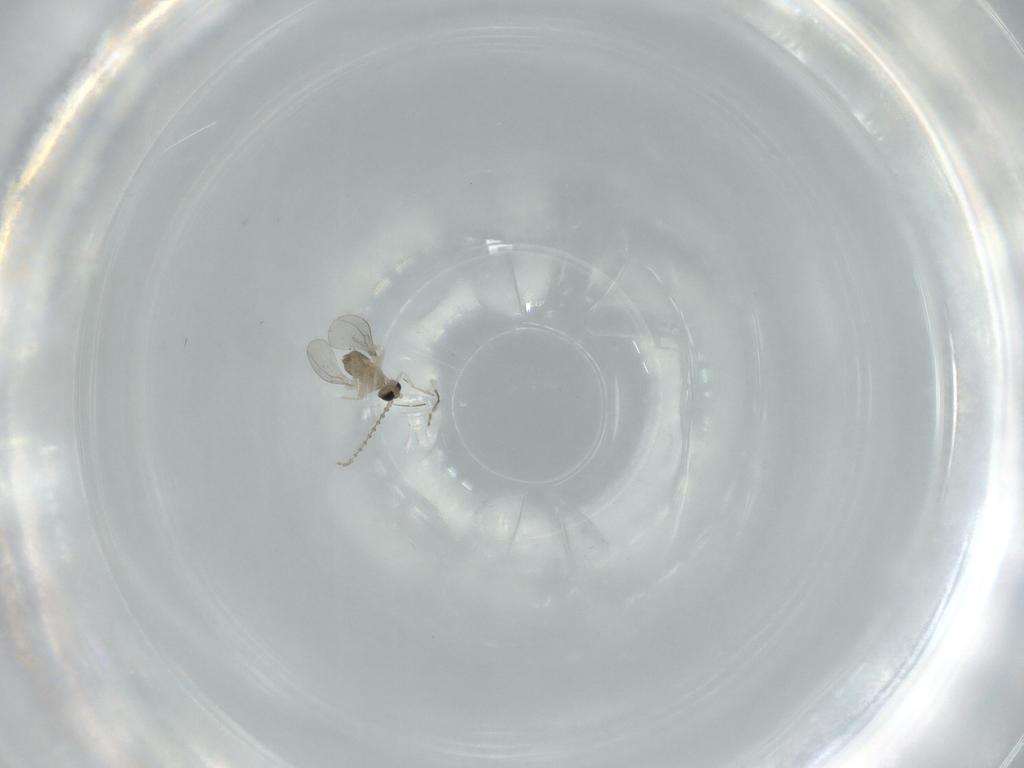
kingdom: Animalia
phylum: Arthropoda
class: Insecta
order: Diptera
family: Cecidomyiidae
